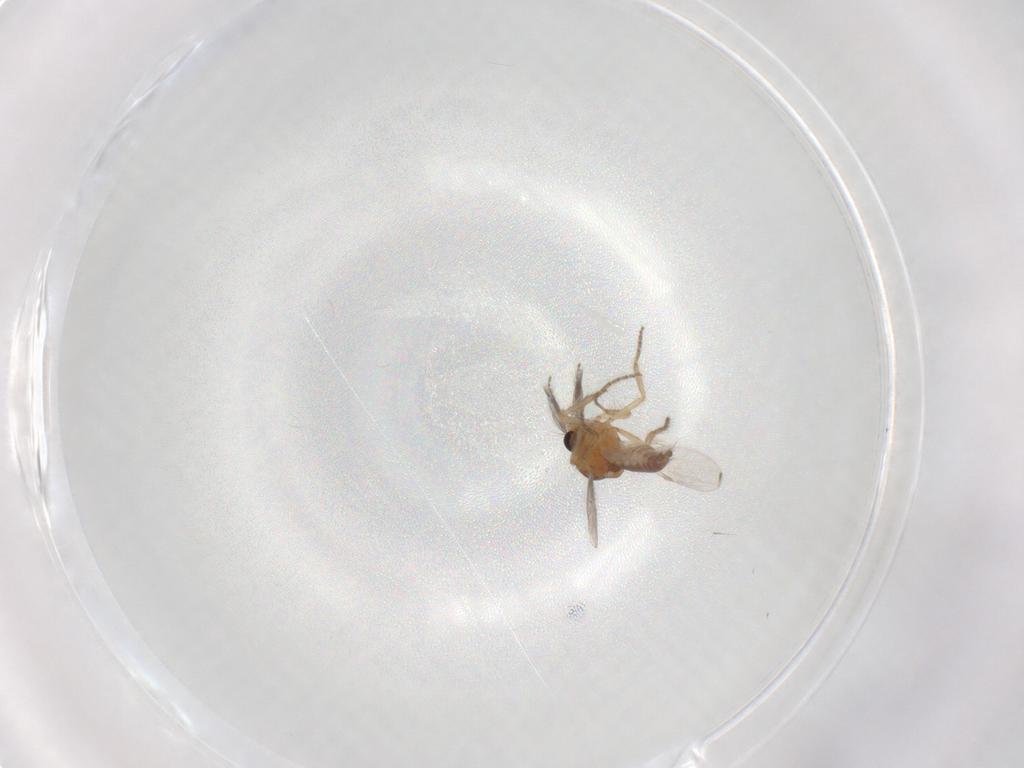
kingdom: Animalia
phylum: Arthropoda
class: Insecta
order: Diptera
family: Ceratopogonidae
